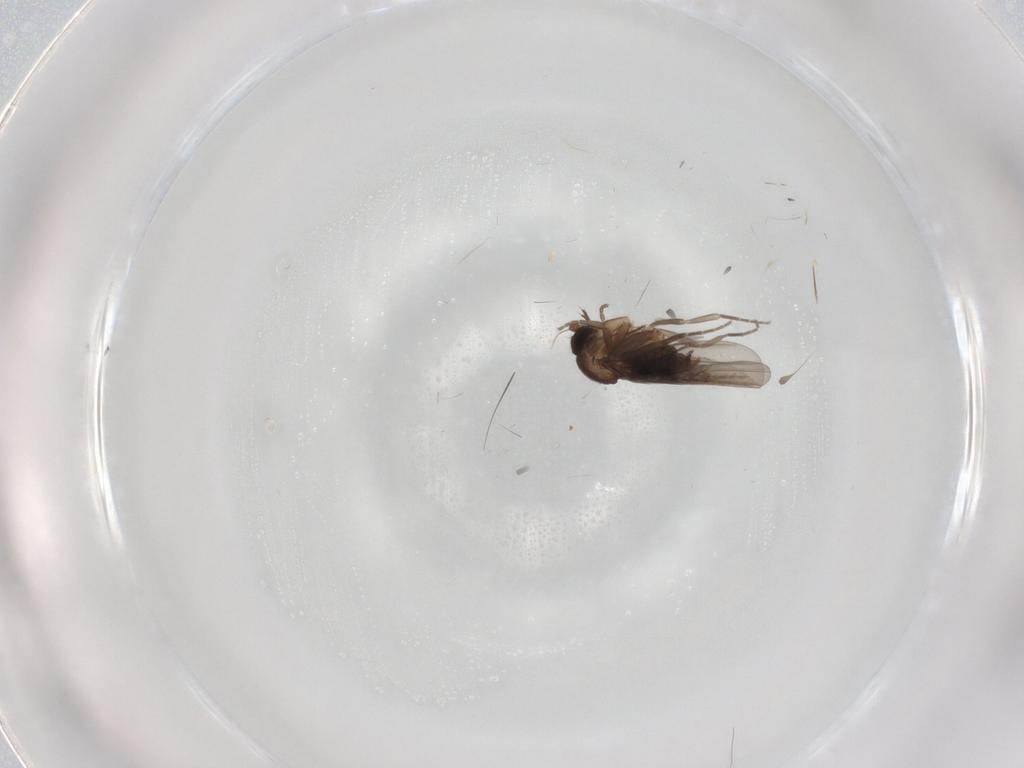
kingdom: Animalia
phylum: Arthropoda
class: Insecta
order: Diptera
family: Phoridae
